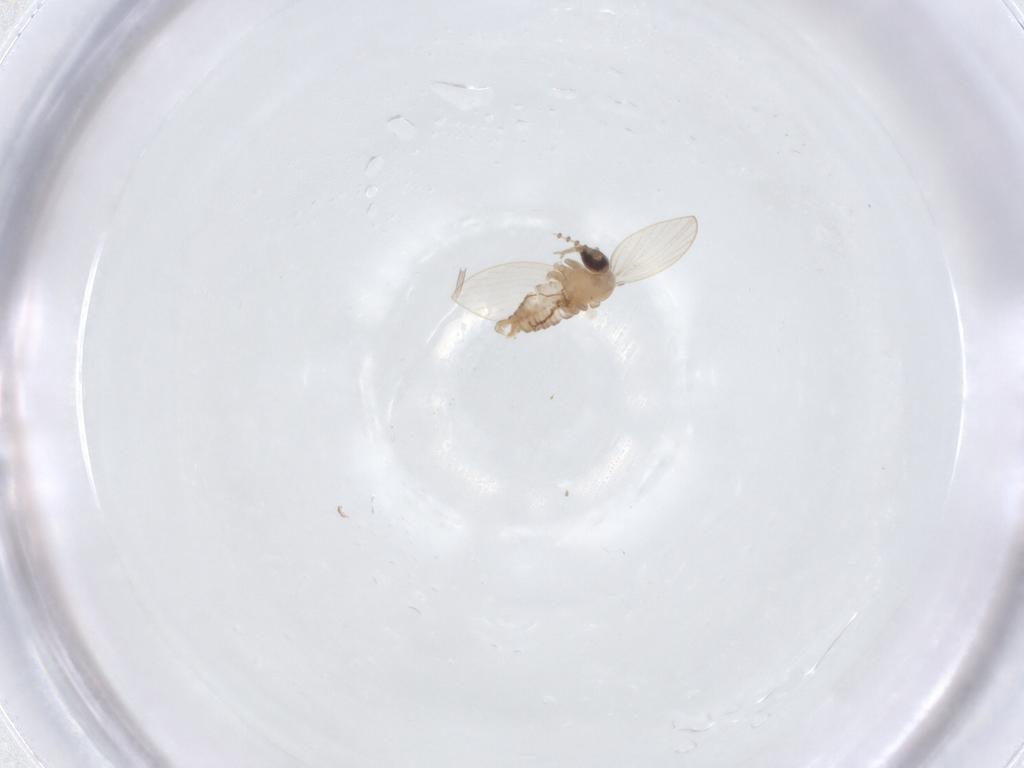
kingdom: Animalia
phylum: Arthropoda
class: Insecta
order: Diptera
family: Psychodidae
